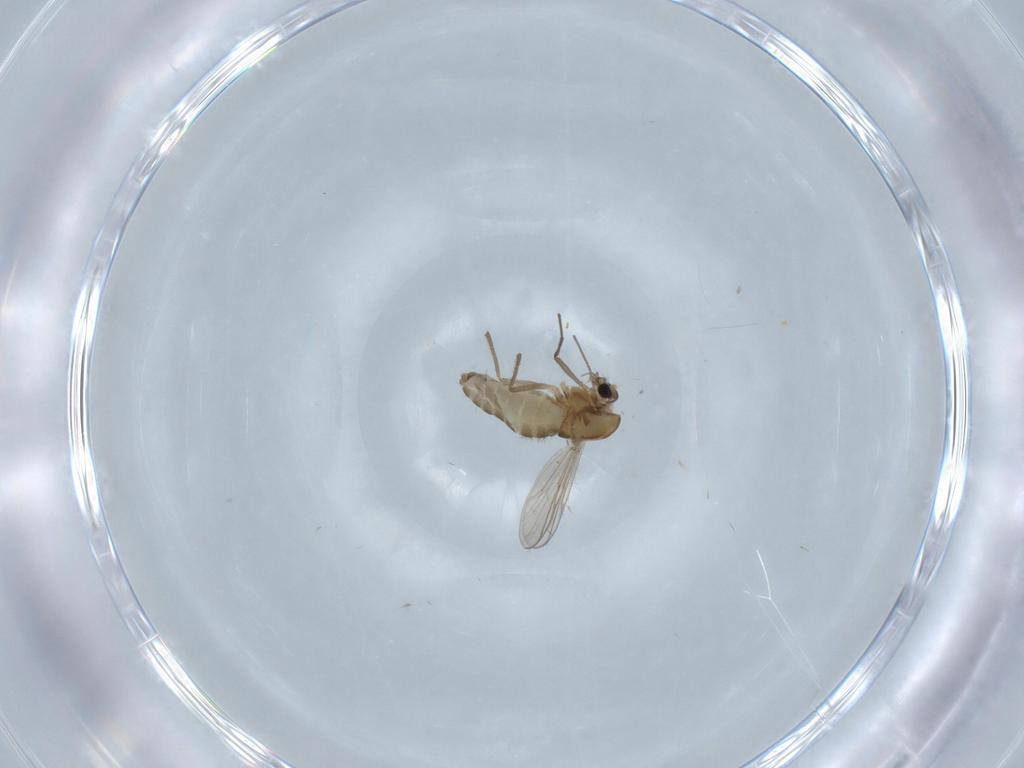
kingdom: Animalia
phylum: Arthropoda
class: Insecta
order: Diptera
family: Chironomidae
